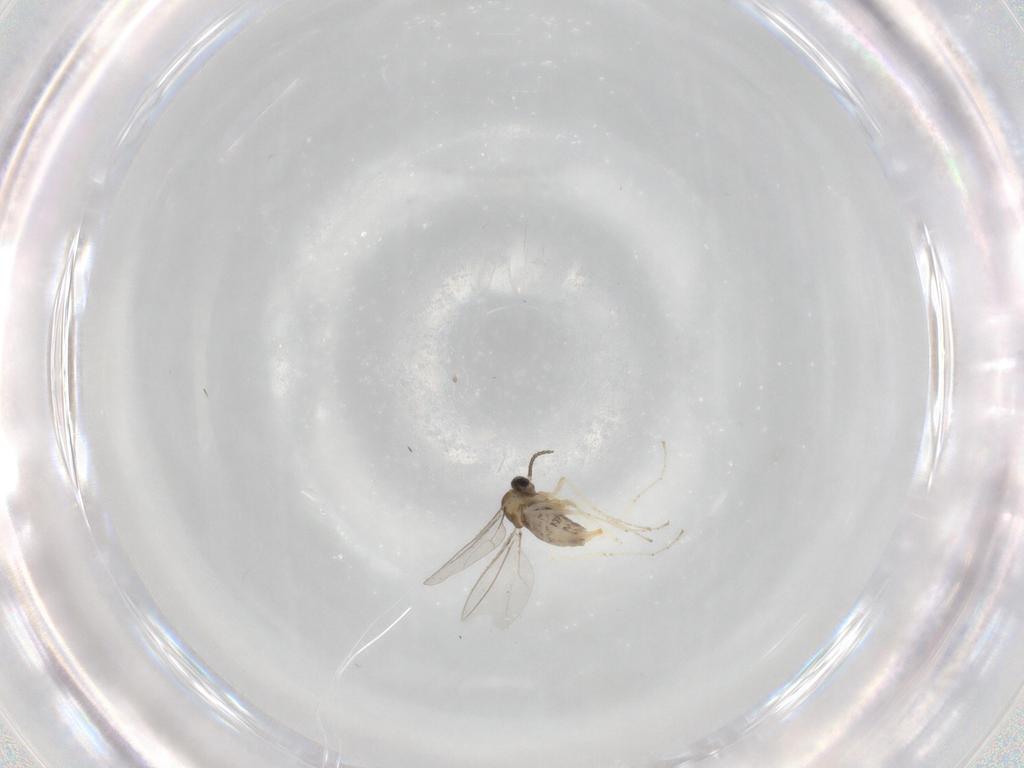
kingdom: Animalia
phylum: Arthropoda
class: Insecta
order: Diptera
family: Cecidomyiidae
